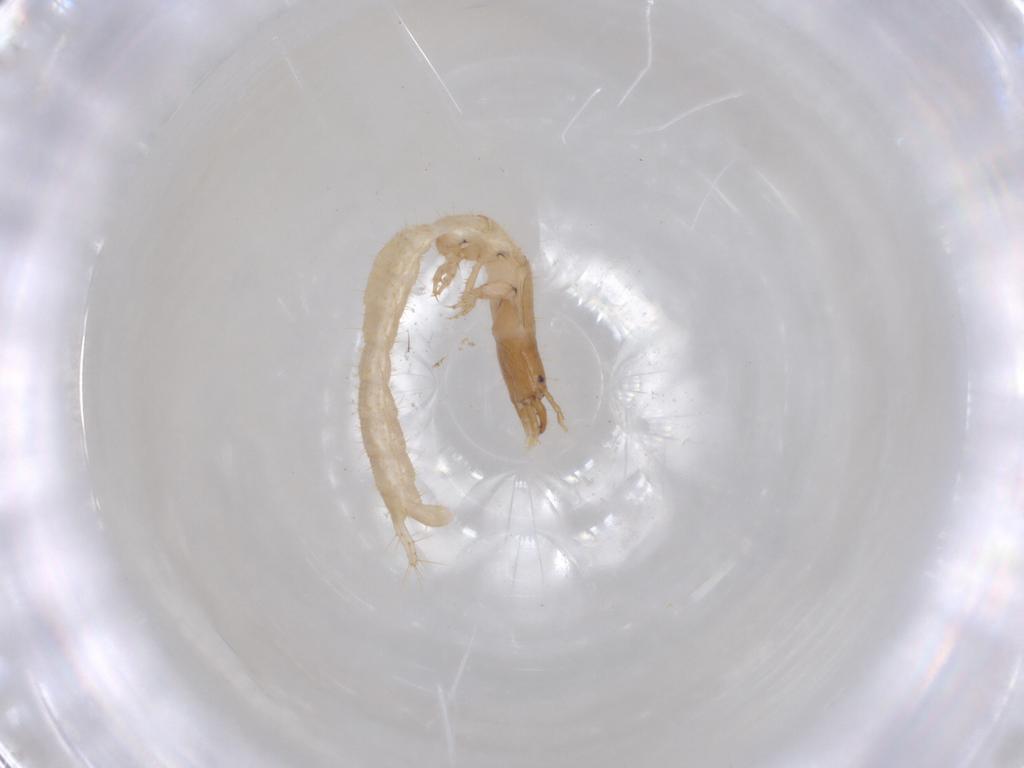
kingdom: Animalia
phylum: Arthropoda
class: Insecta
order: Coleoptera
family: Carabidae
